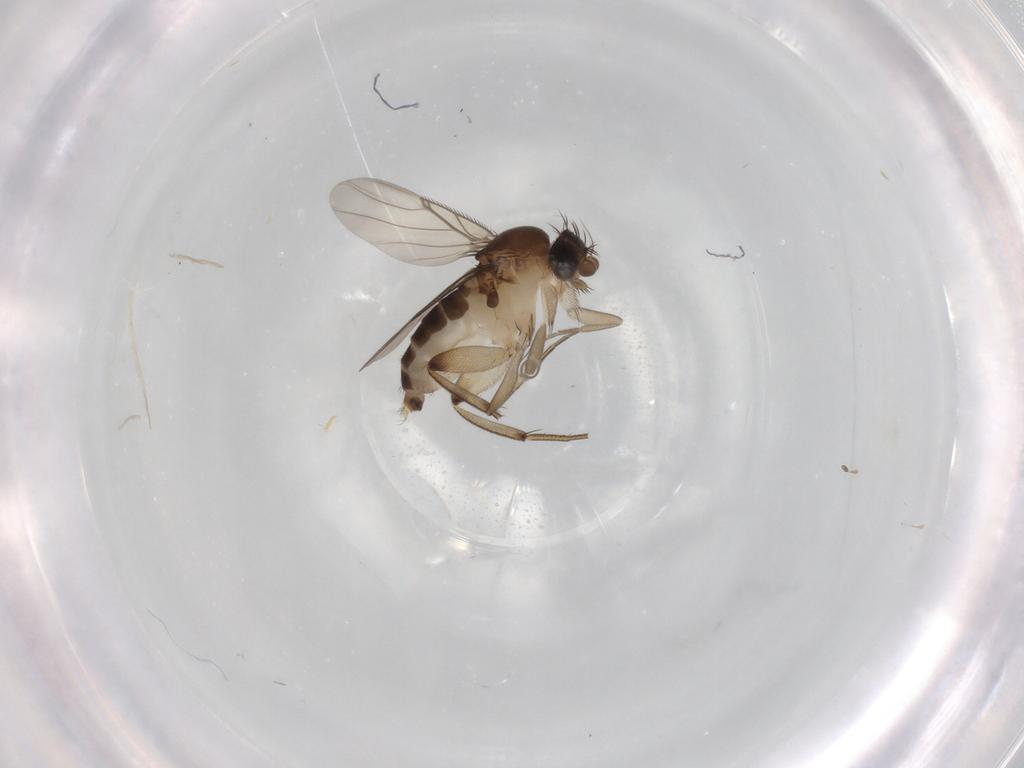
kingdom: Animalia
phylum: Arthropoda
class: Insecta
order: Diptera
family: Phoridae
